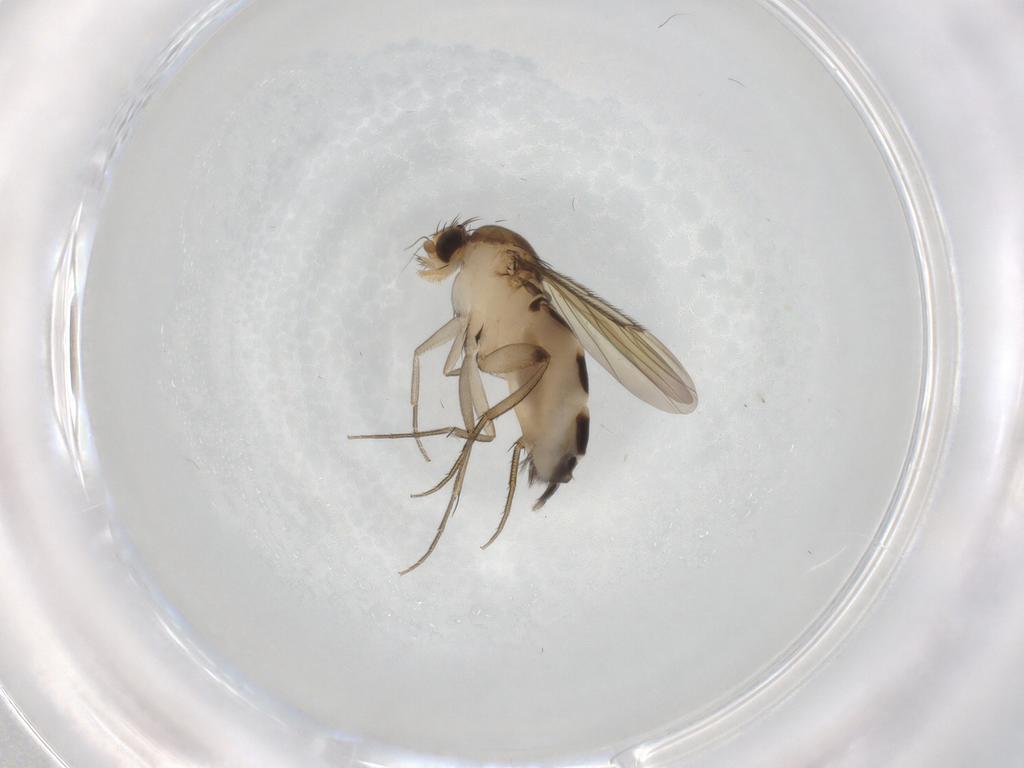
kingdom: Animalia
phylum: Arthropoda
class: Insecta
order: Diptera
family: Phoridae
